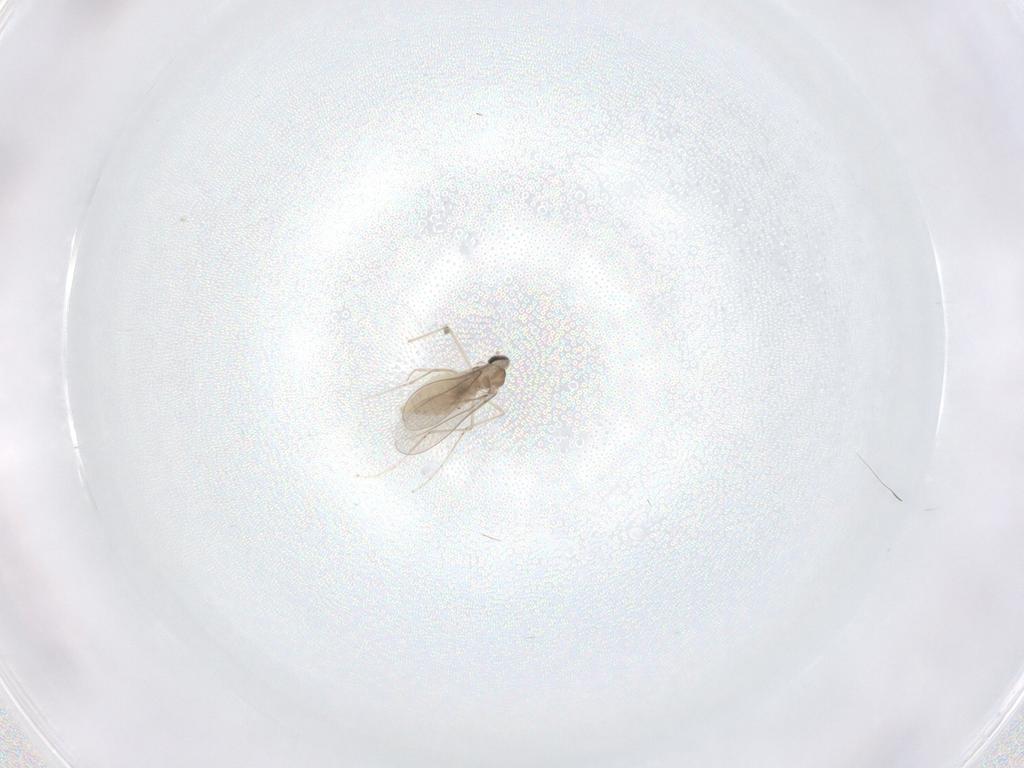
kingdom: Animalia
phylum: Arthropoda
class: Insecta
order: Diptera
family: Cecidomyiidae
